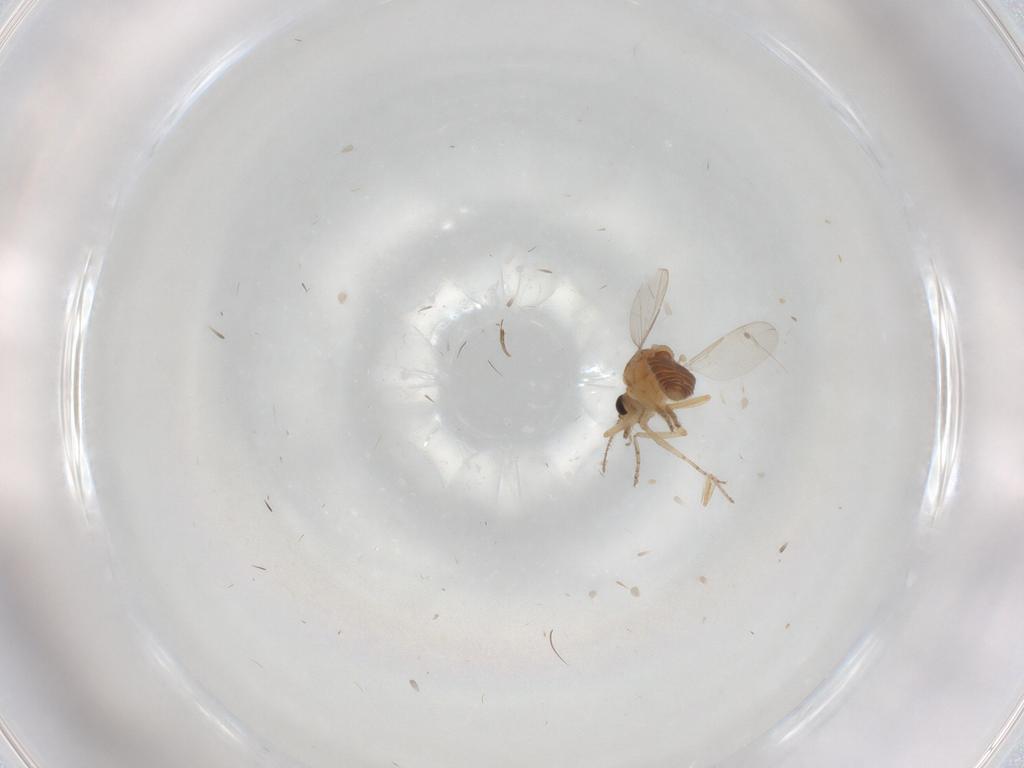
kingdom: Animalia
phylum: Arthropoda
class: Insecta
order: Diptera
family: Ceratopogonidae
